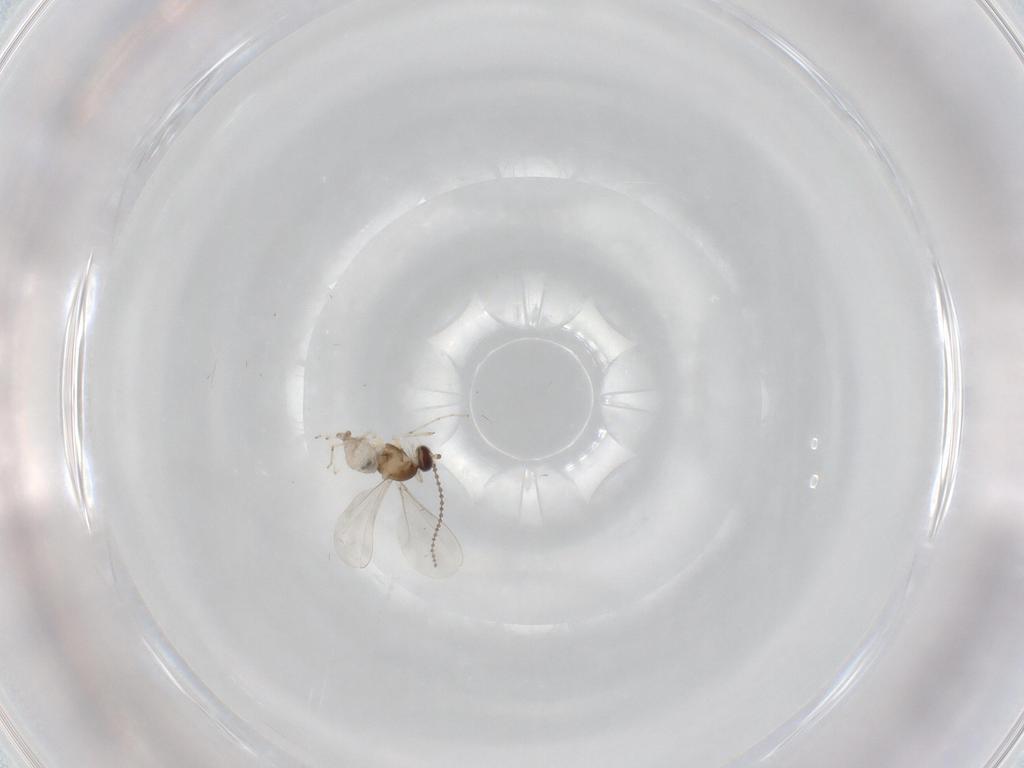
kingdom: Animalia
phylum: Arthropoda
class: Insecta
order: Diptera
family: Cecidomyiidae
